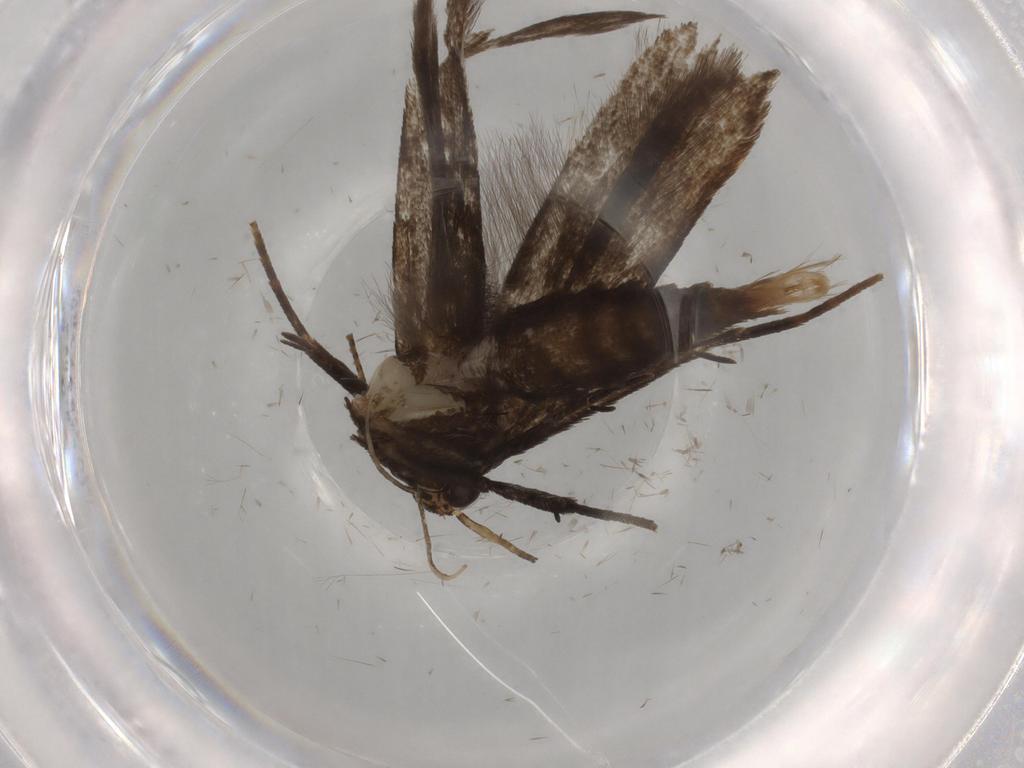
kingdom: Animalia
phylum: Arthropoda
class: Insecta
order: Lepidoptera
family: Gelechiidae
